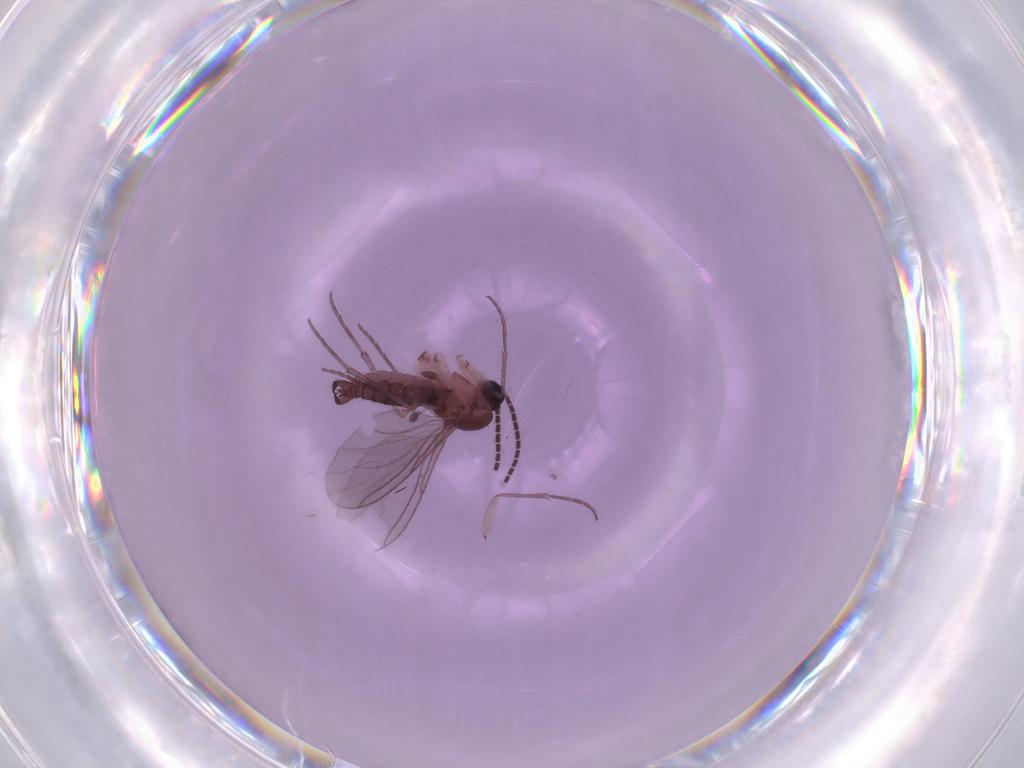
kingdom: Animalia
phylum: Arthropoda
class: Insecta
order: Diptera
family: Sciaridae
